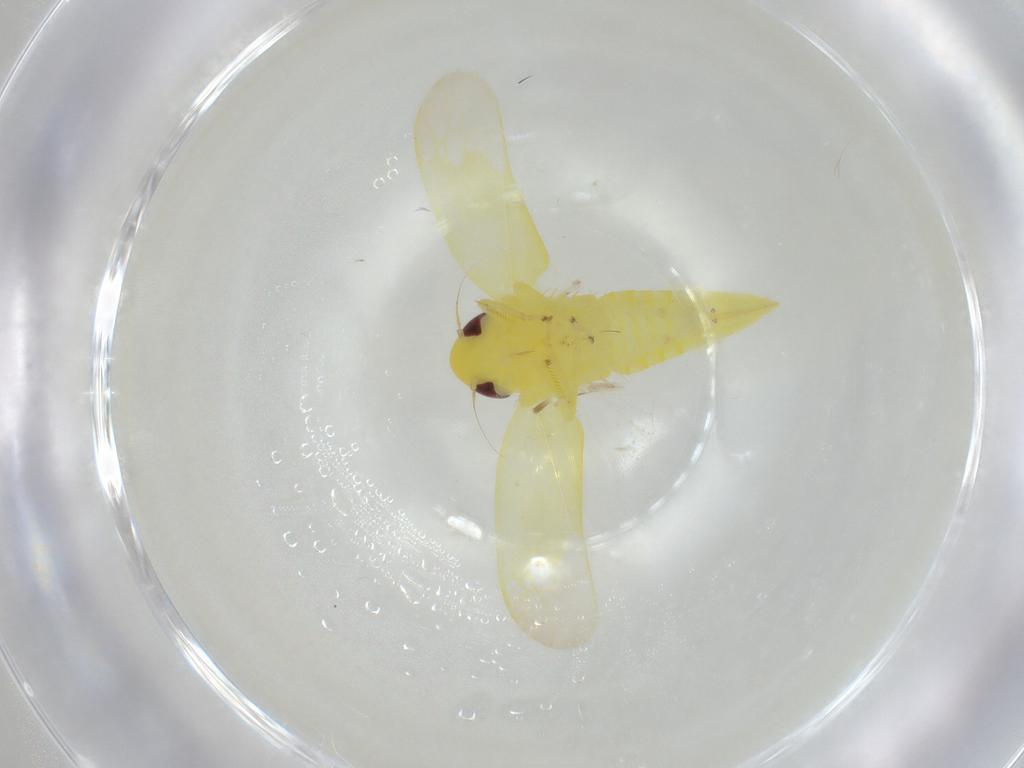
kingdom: Animalia
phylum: Arthropoda
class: Insecta
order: Hemiptera
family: Cicadellidae
